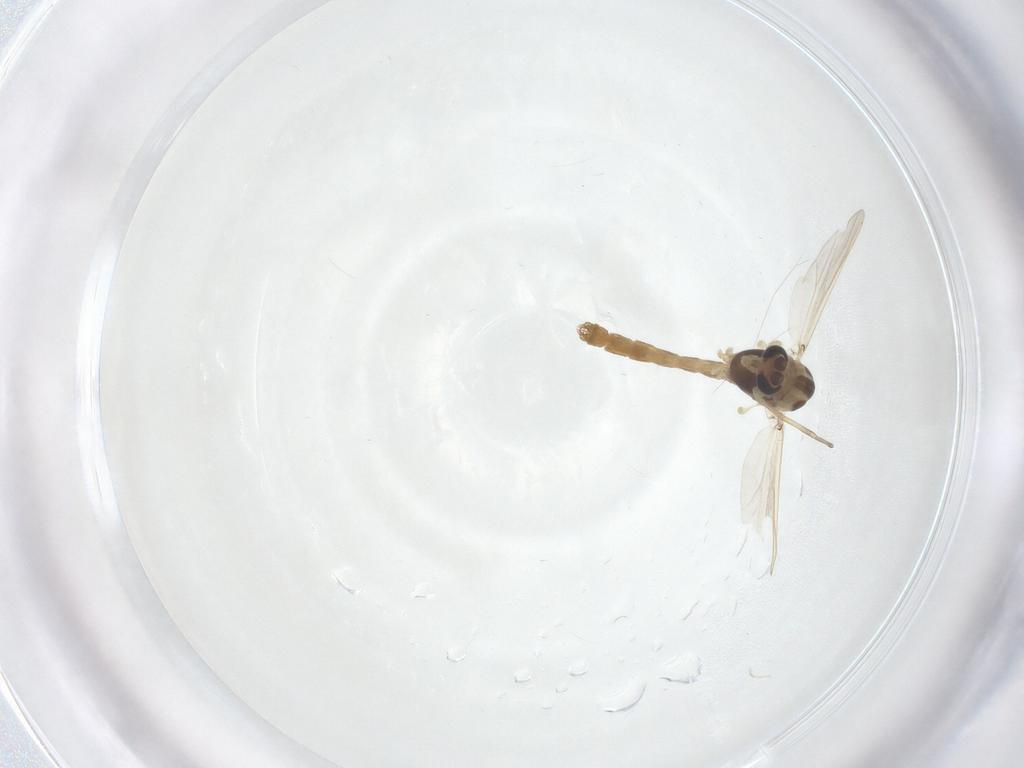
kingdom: Animalia
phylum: Arthropoda
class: Insecta
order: Diptera
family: Chironomidae
